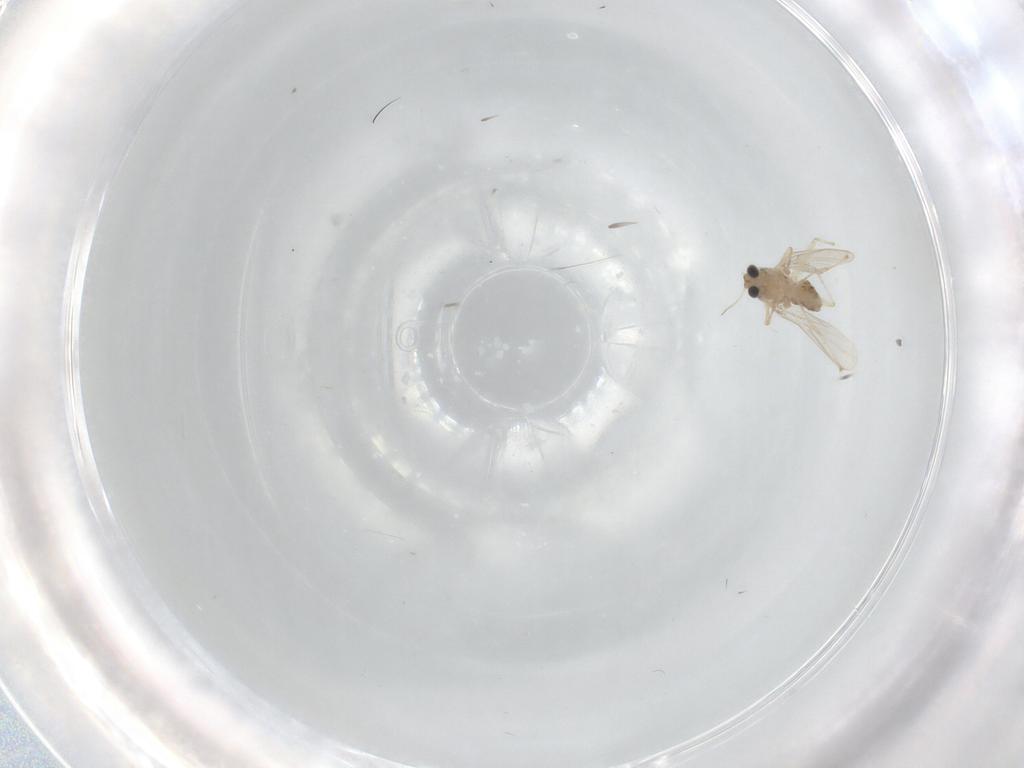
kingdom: Animalia
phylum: Arthropoda
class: Insecta
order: Diptera
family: Chironomidae
